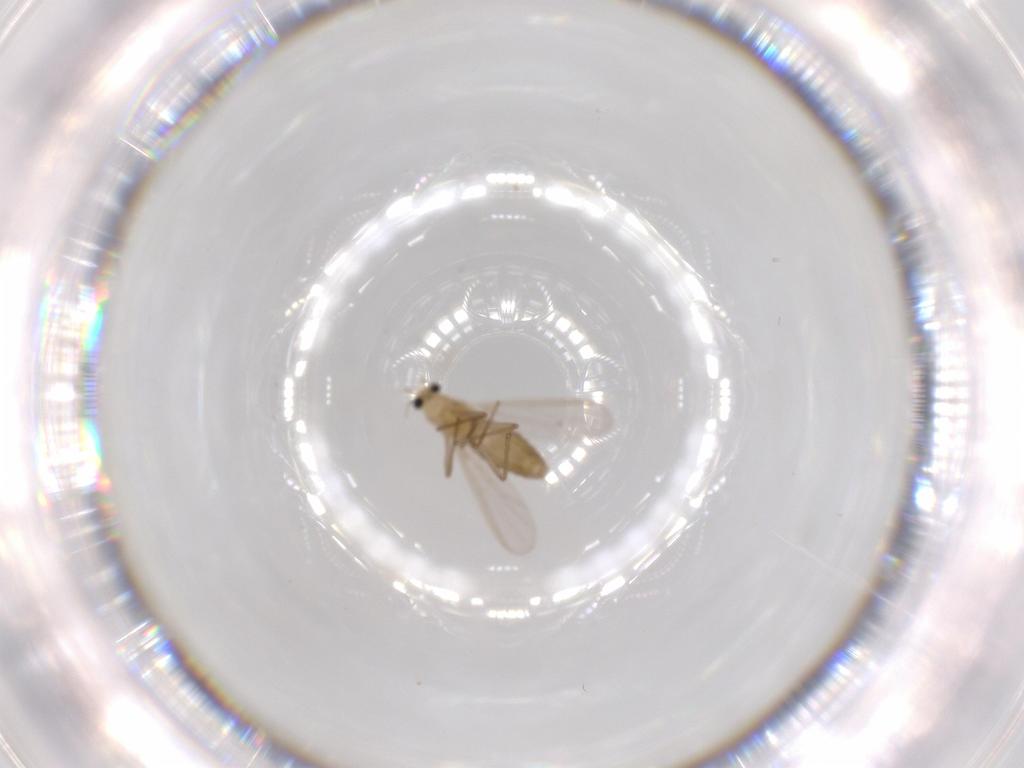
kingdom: Animalia
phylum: Arthropoda
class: Insecta
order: Diptera
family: Chironomidae
